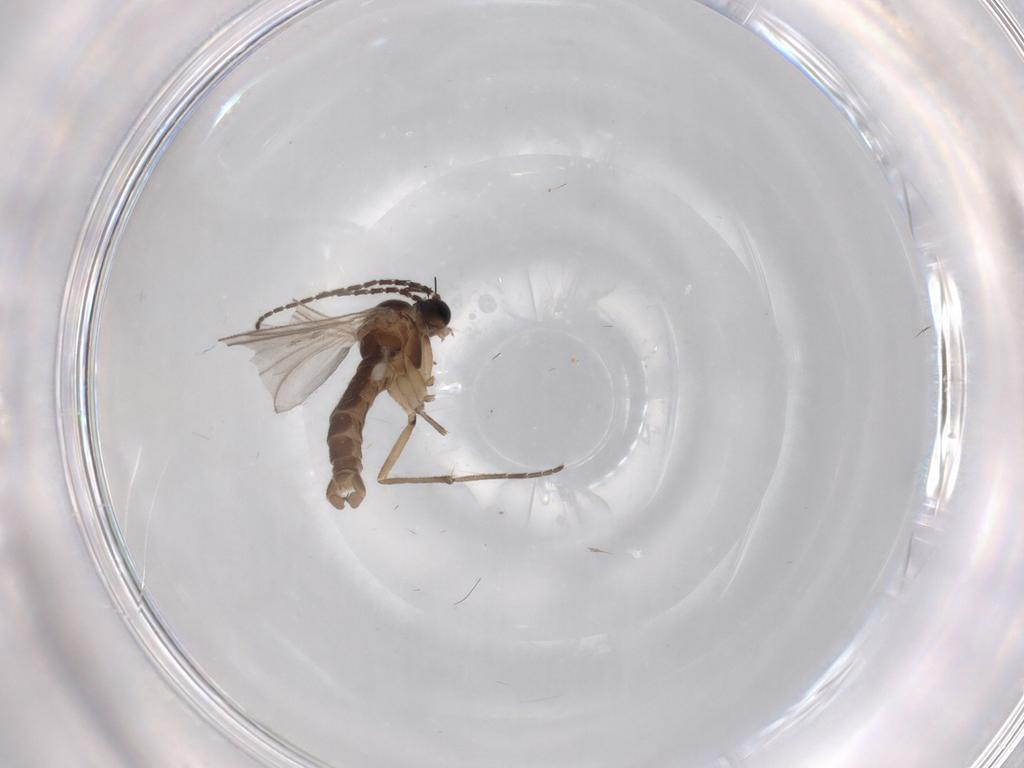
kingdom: Animalia
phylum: Arthropoda
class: Insecta
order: Diptera
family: Sciaridae
